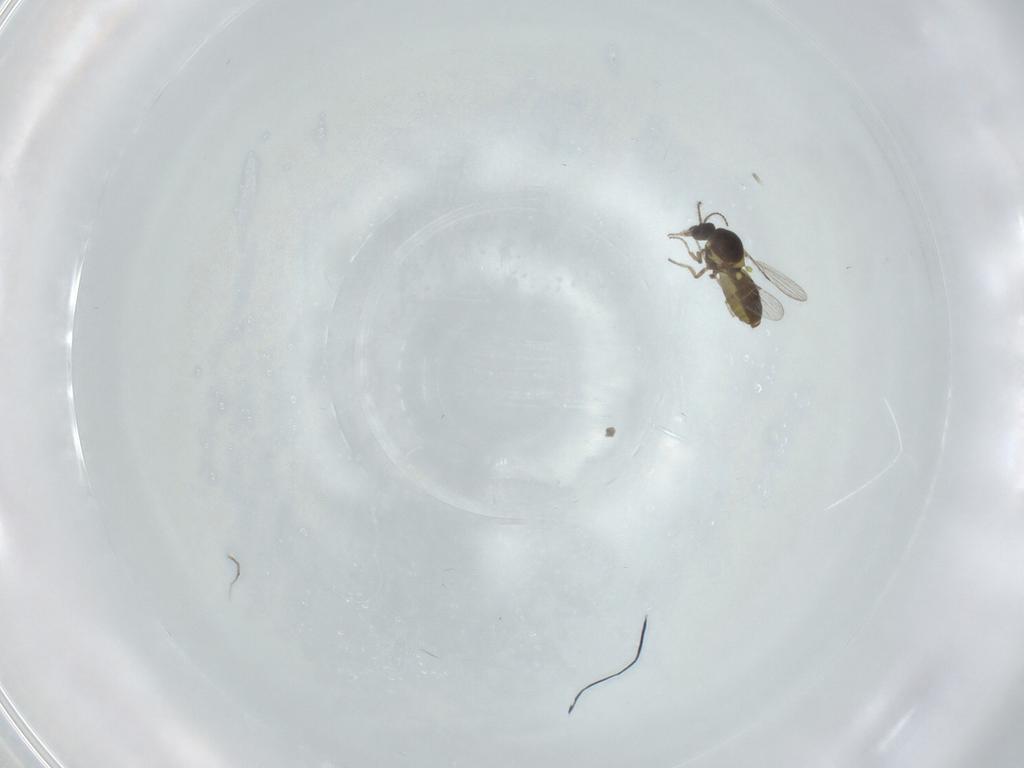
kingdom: Animalia
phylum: Arthropoda
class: Insecta
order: Diptera
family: Ceratopogonidae
